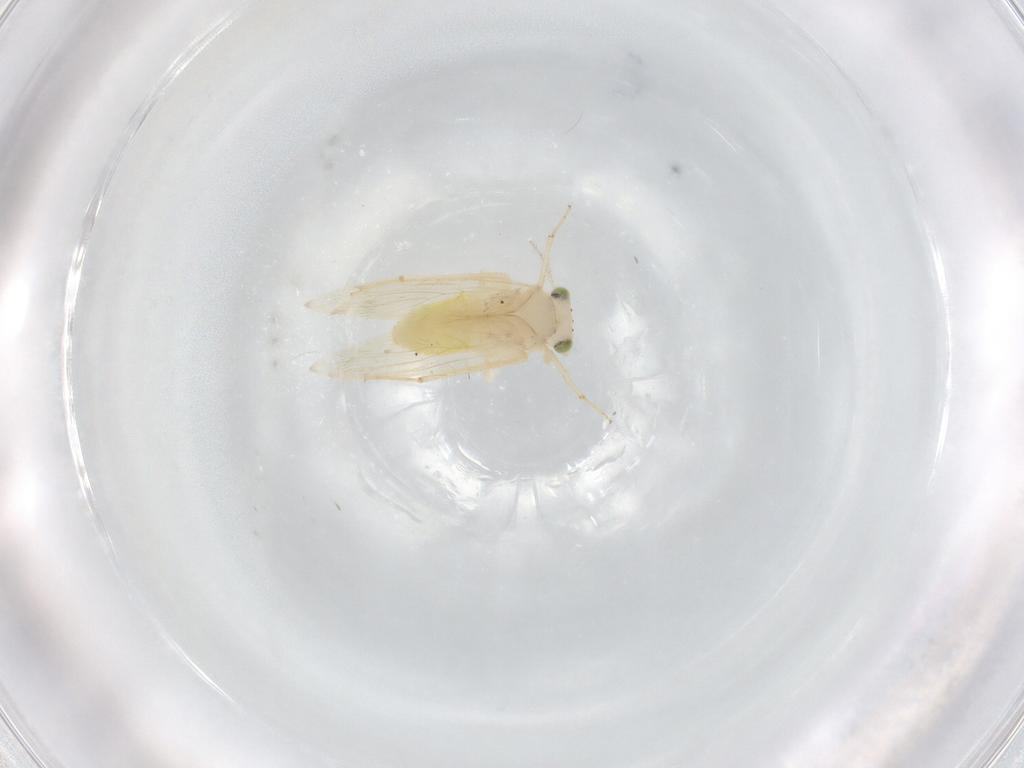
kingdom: Animalia
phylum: Arthropoda
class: Insecta
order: Psocodea
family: Lepidopsocidae
